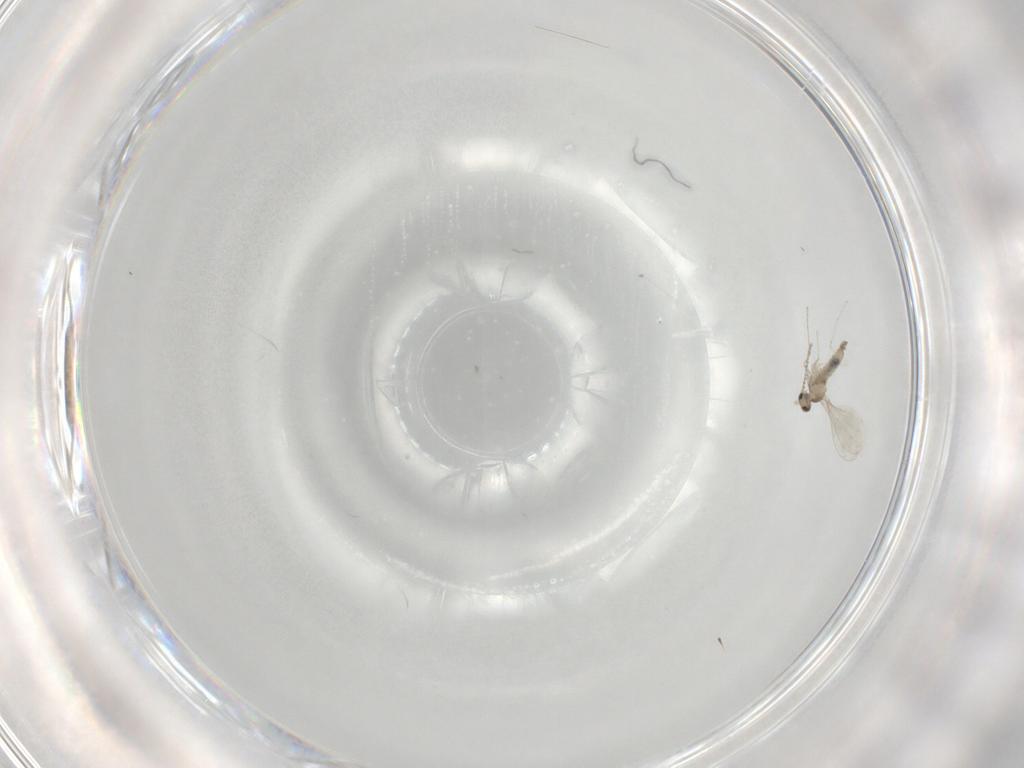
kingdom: Animalia
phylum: Arthropoda
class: Insecta
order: Diptera
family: Cecidomyiidae
